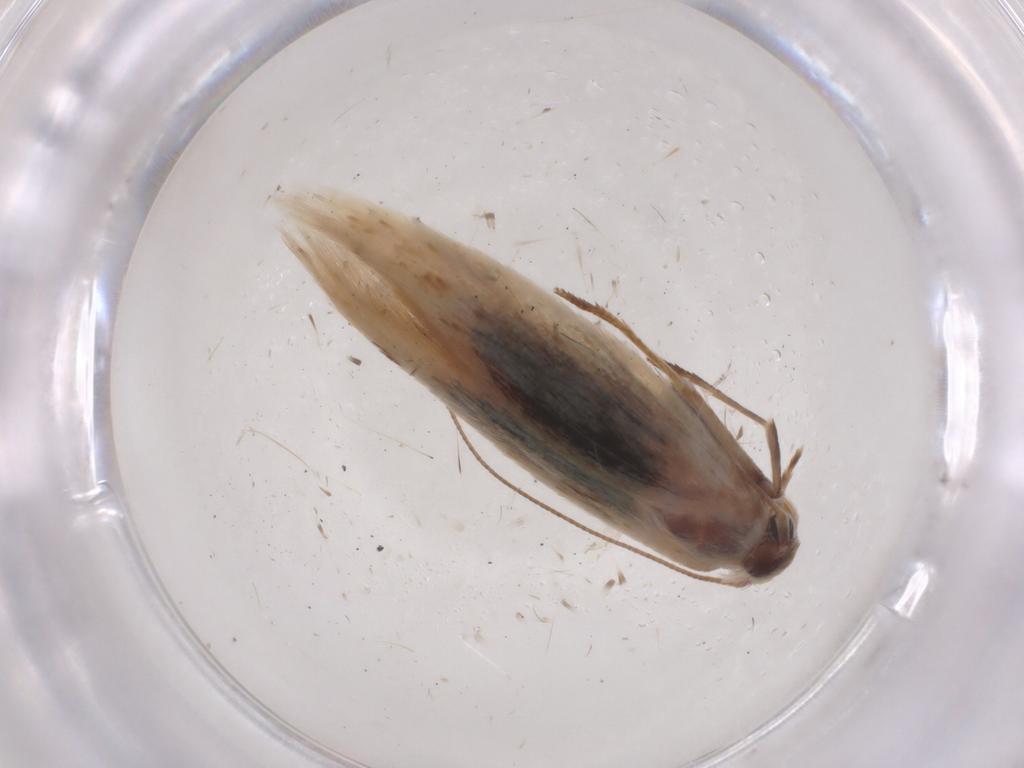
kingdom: Animalia
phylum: Arthropoda
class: Insecta
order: Lepidoptera
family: Scythrididae
